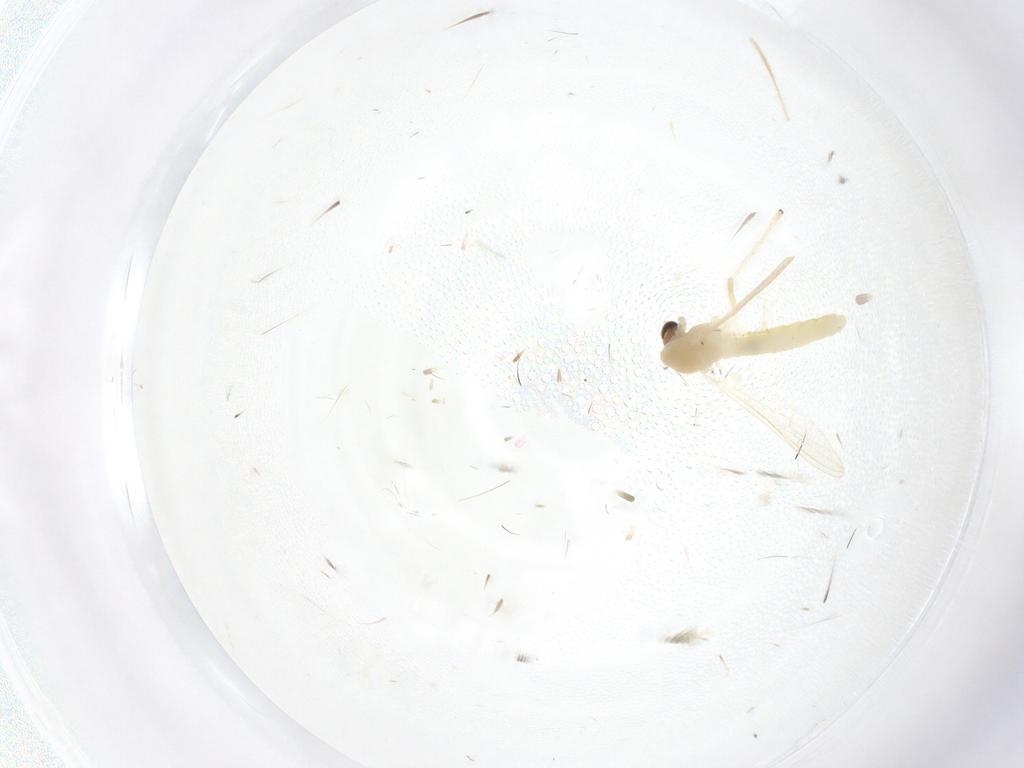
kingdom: Animalia
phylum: Arthropoda
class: Insecta
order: Diptera
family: Chironomidae
